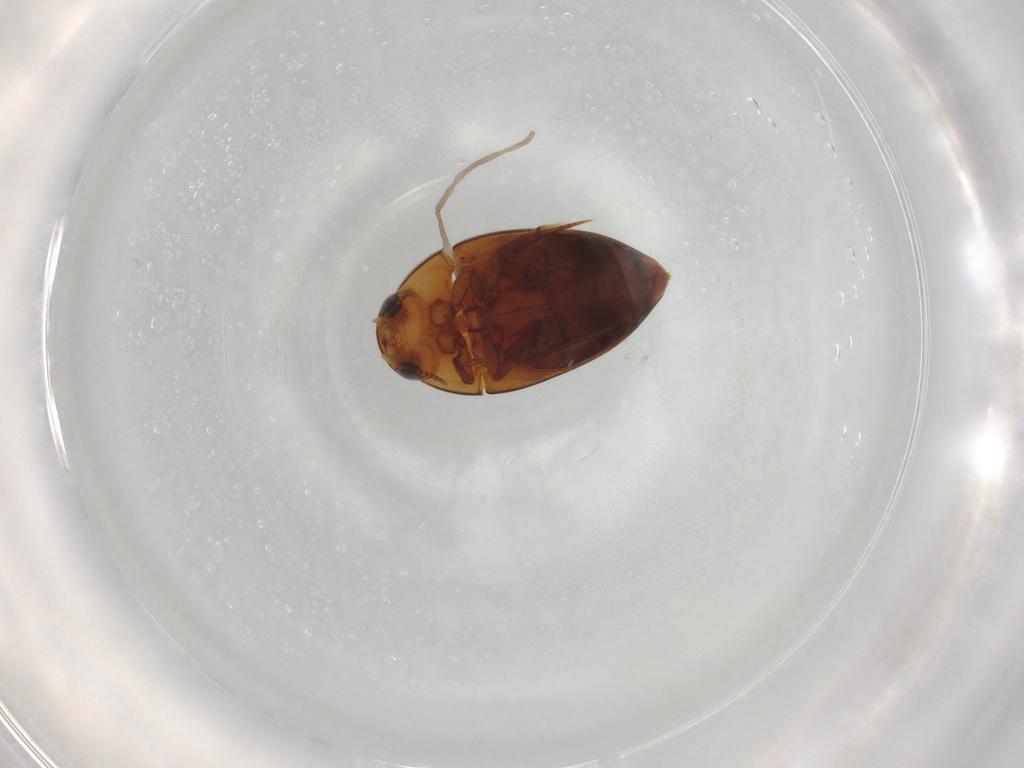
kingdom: Animalia
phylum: Arthropoda
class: Insecta
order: Coleoptera
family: Noteridae
